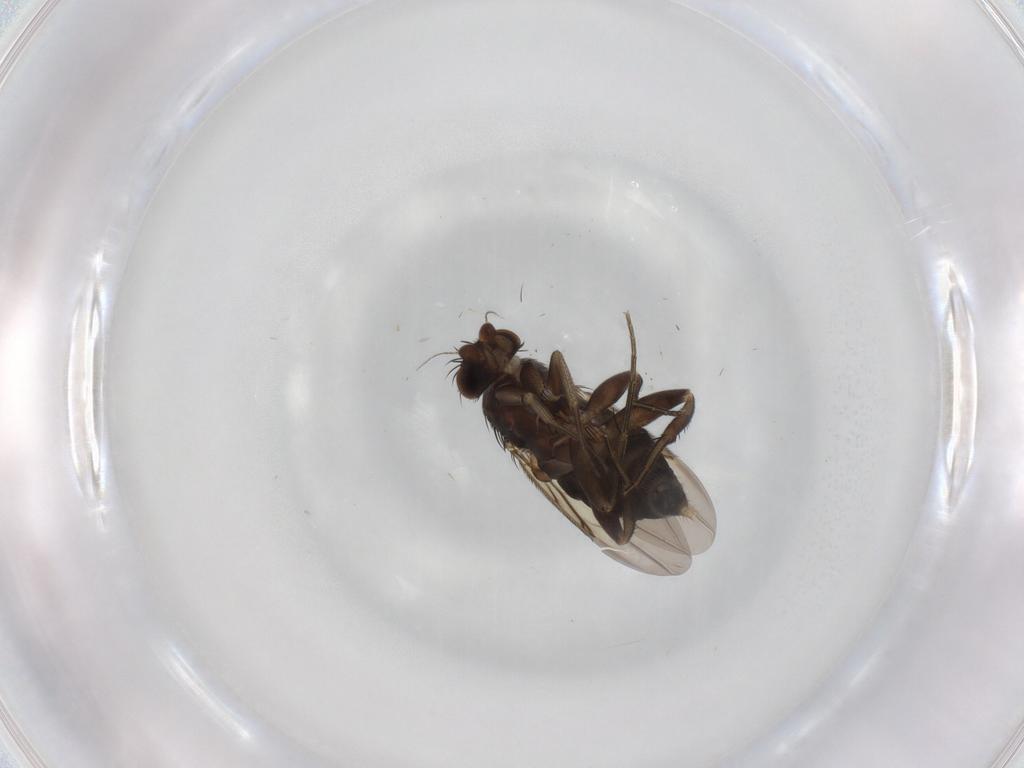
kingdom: Animalia
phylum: Arthropoda
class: Insecta
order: Diptera
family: Phoridae
